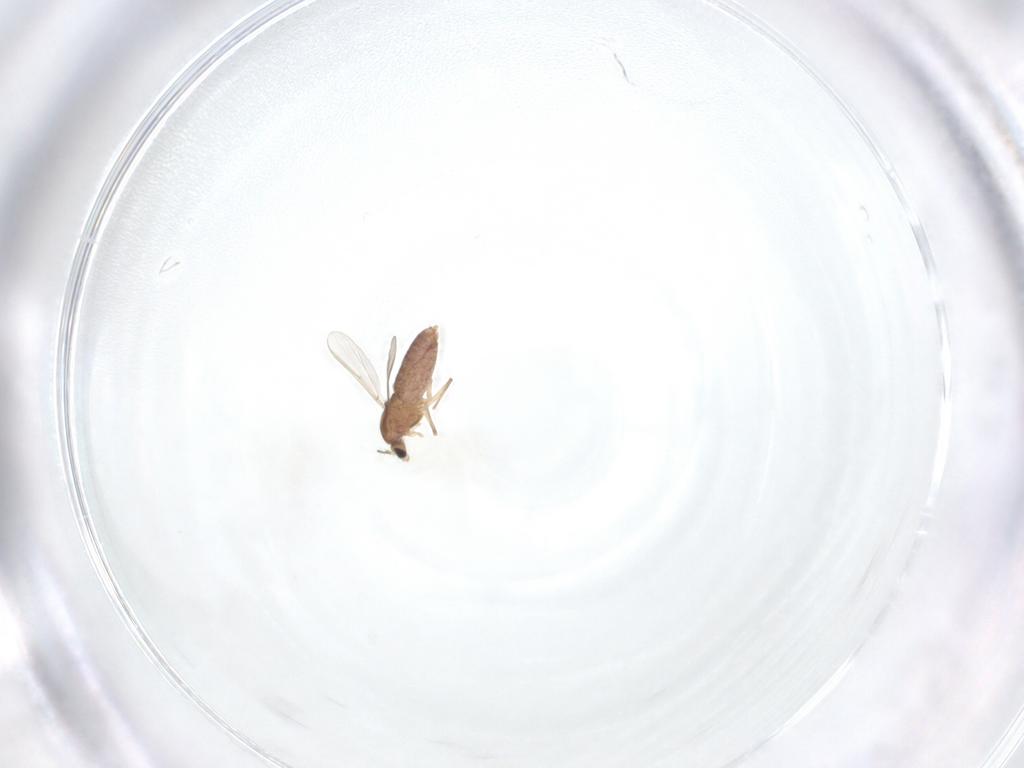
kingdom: Animalia
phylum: Arthropoda
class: Insecta
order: Diptera
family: Chironomidae
